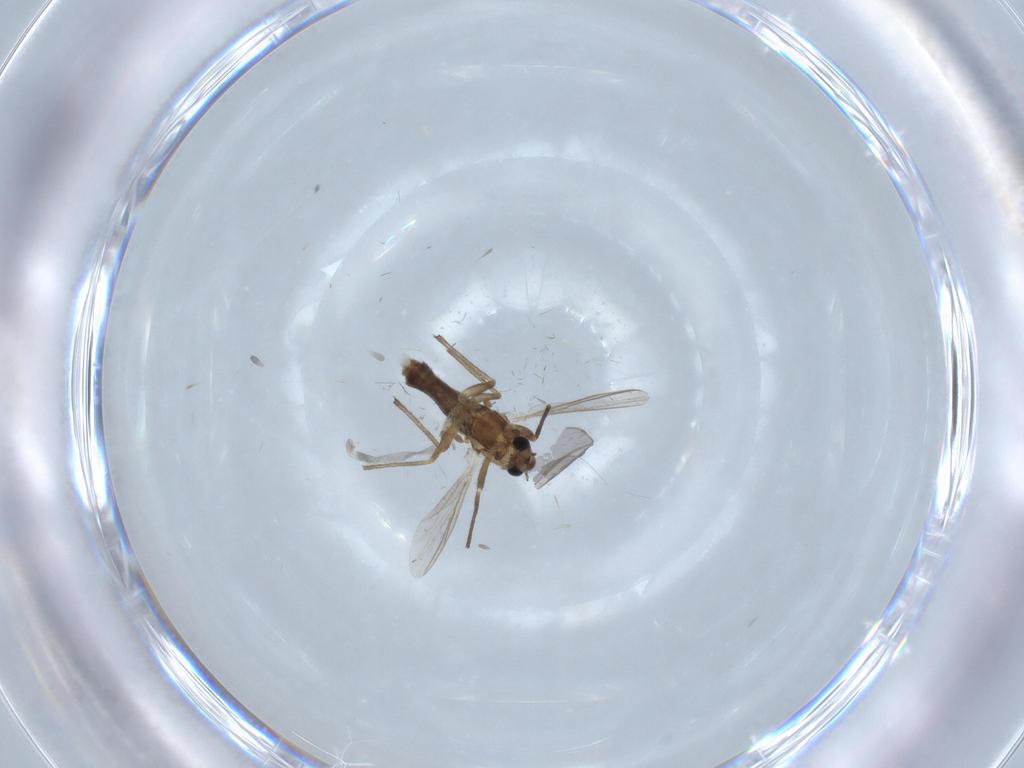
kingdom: Animalia
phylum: Arthropoda
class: Insecta
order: Diptera
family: Chironomidae
